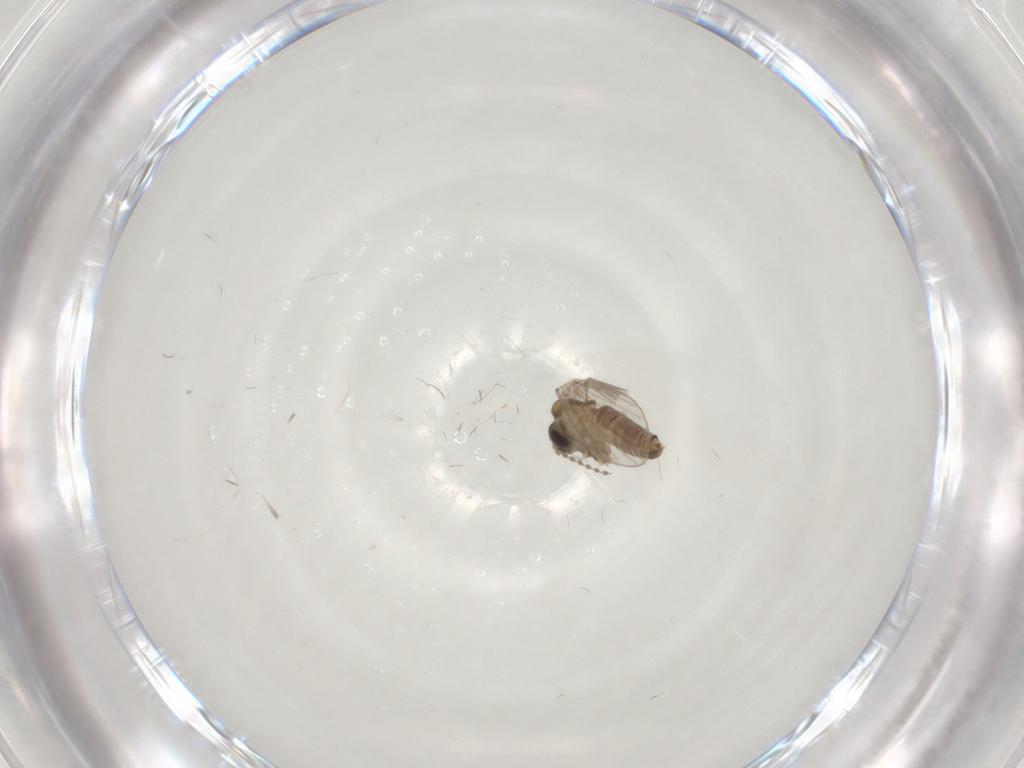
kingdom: Animalia
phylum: Arthropoda
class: Insecta
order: Diptera
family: Psychodidae
